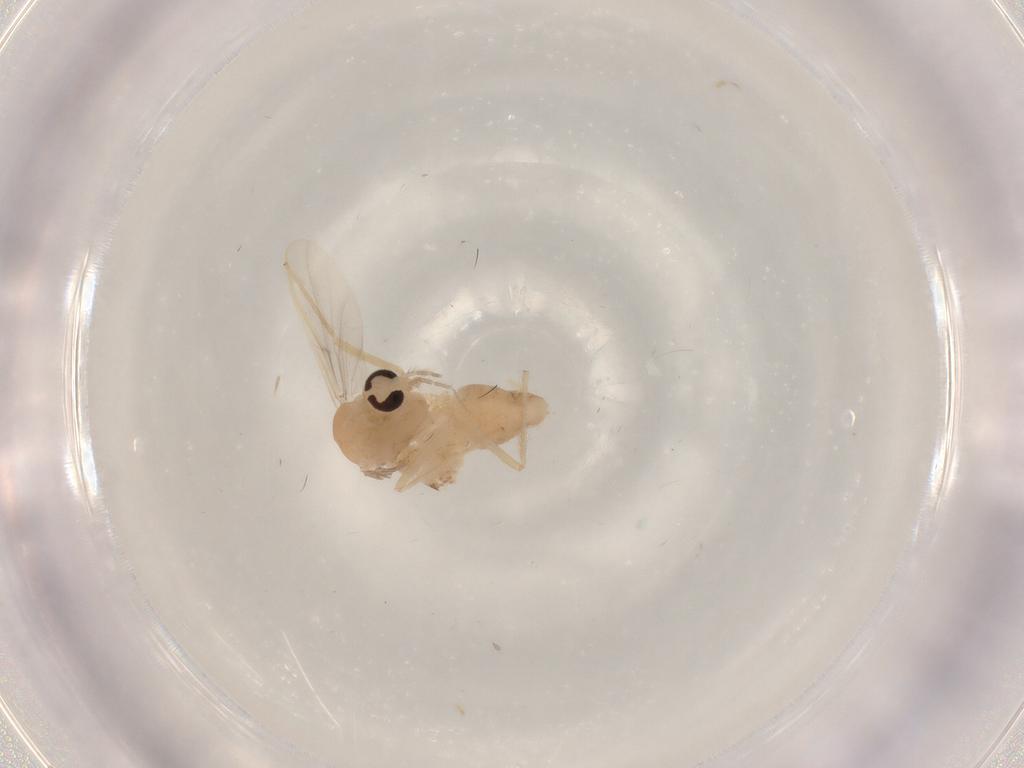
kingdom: Animalia
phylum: Arthropoda
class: Insecta
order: Diptera
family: Chironomidae
